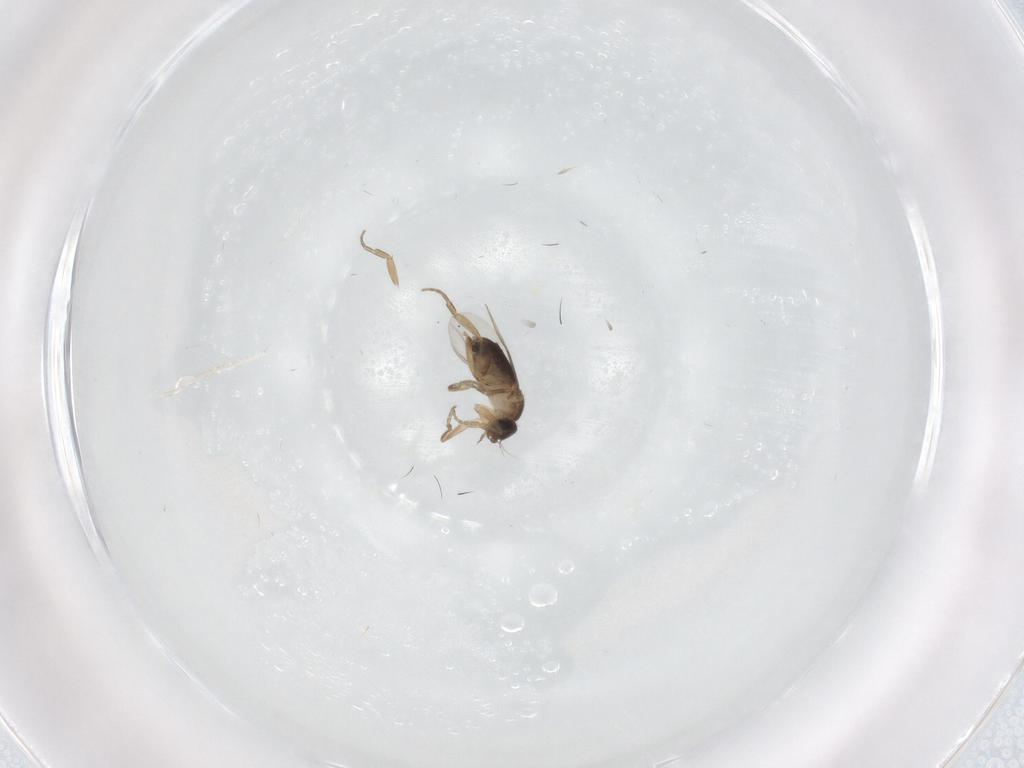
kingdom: Animalia
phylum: Arthropoda
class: Insecta
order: Diptera
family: Phoridae
